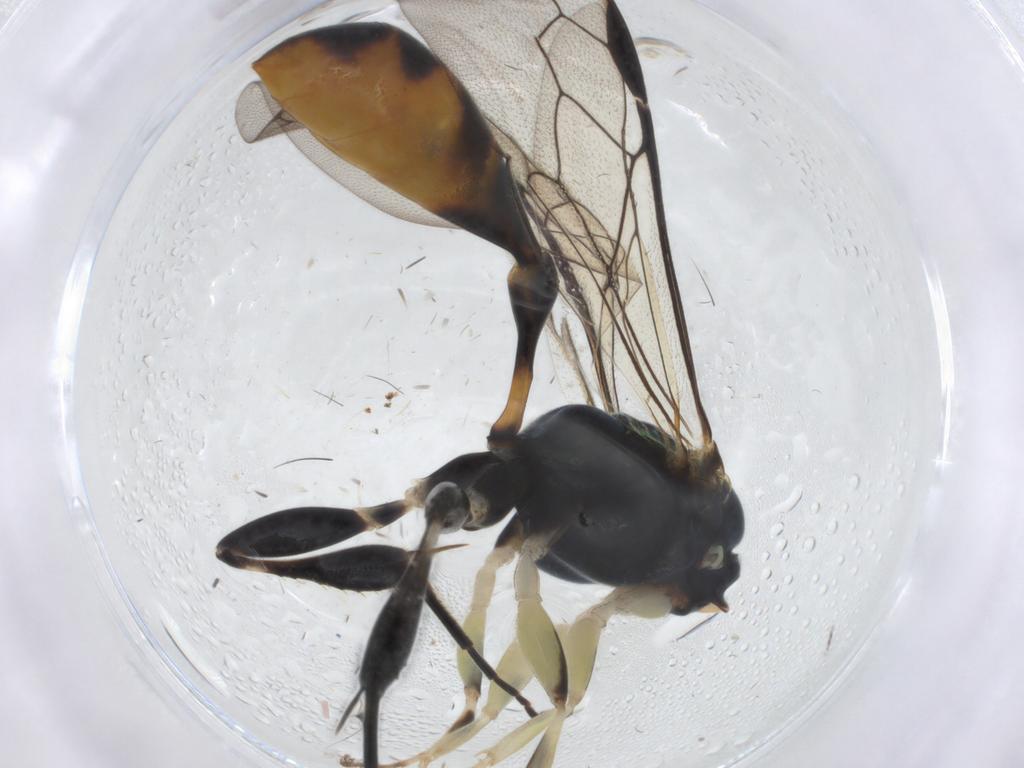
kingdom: Animalia
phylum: Arthropoda
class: Insecta
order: Hymenoptera
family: Crabronidae
